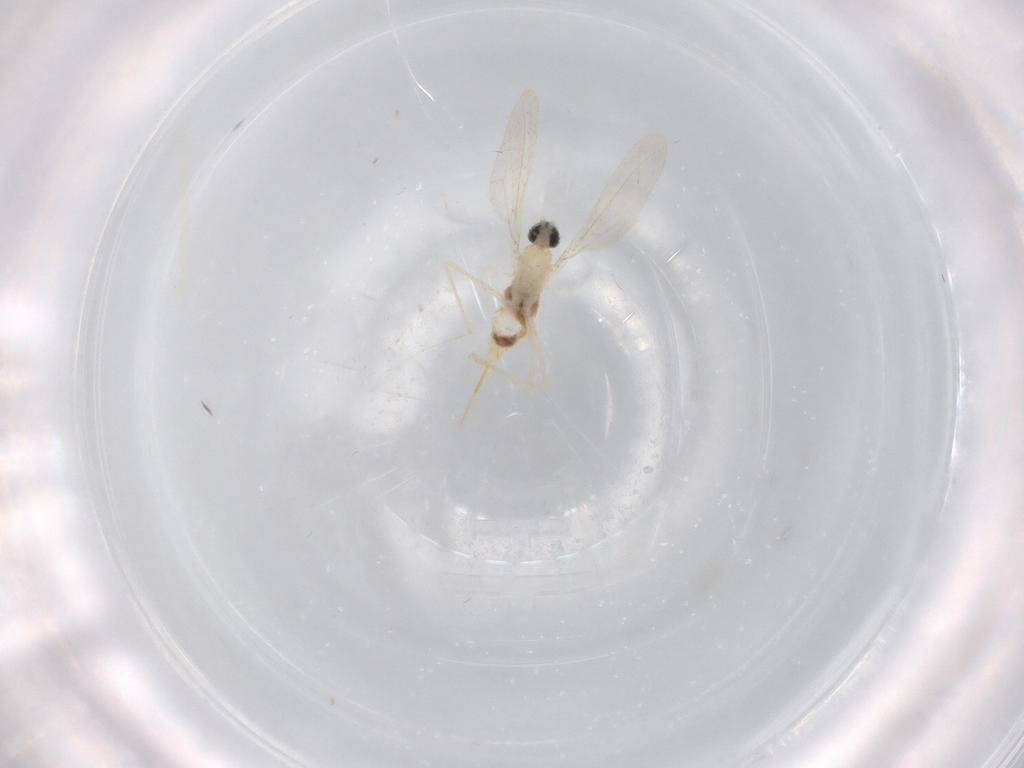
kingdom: Animalia
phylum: Arthropoda
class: Insecta
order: Diptera
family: Cecidomyiidae
